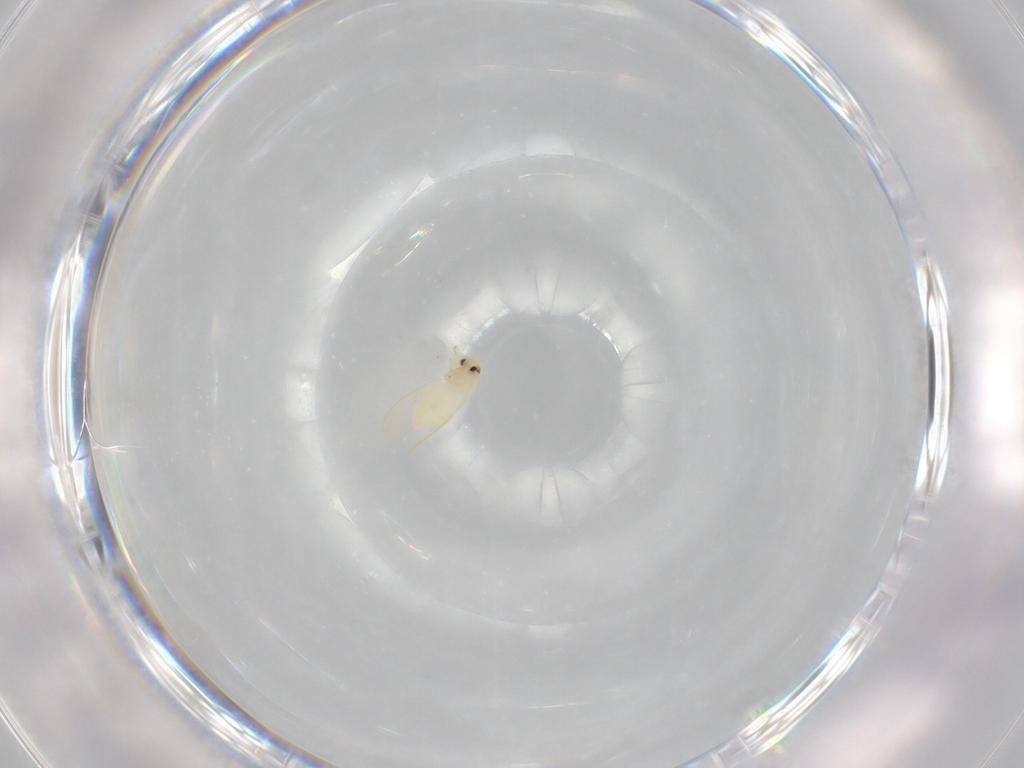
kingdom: Animalia
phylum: Arthropoda
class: Insecta
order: Hemiptera
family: Aleyrodidae
